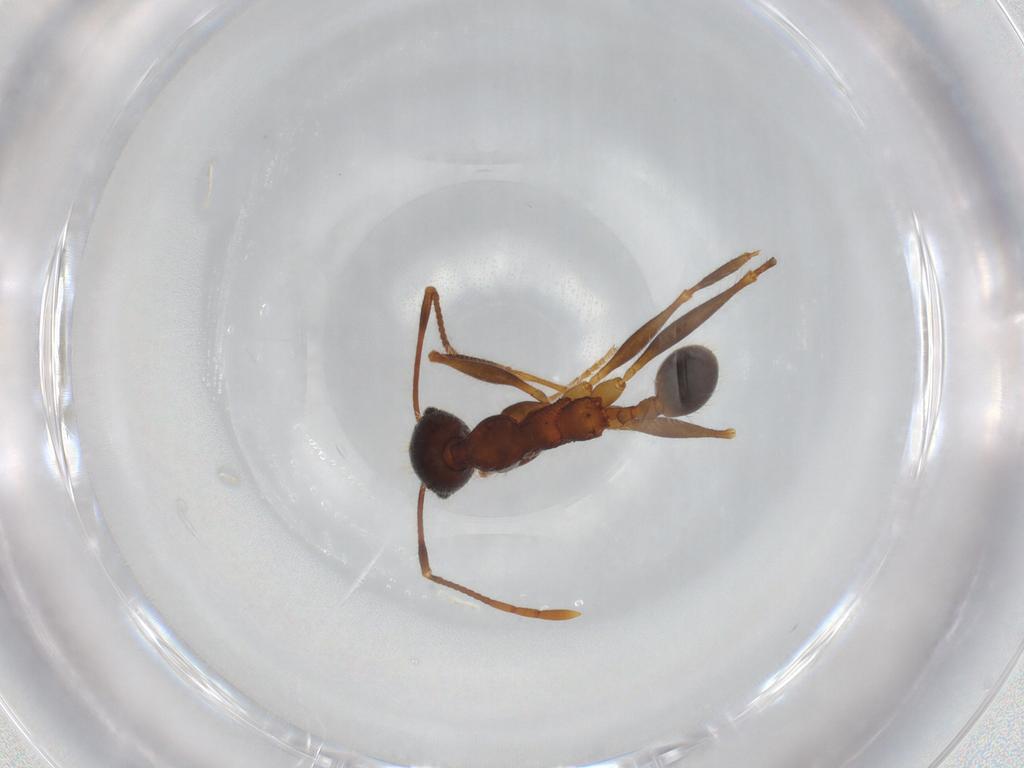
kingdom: Animalia
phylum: Arthropoda
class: Insecta
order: Hymenoptera
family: Formicidae
